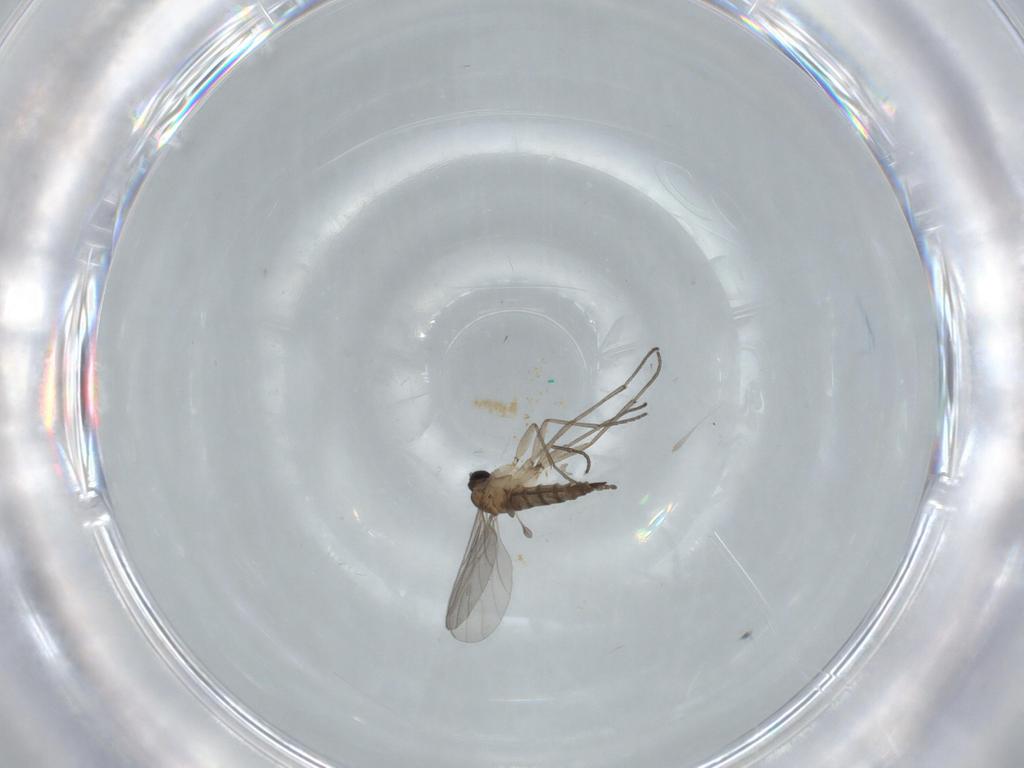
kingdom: Animalia
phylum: Arthropoda
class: Insecta
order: Diptera
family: Sciaridae
